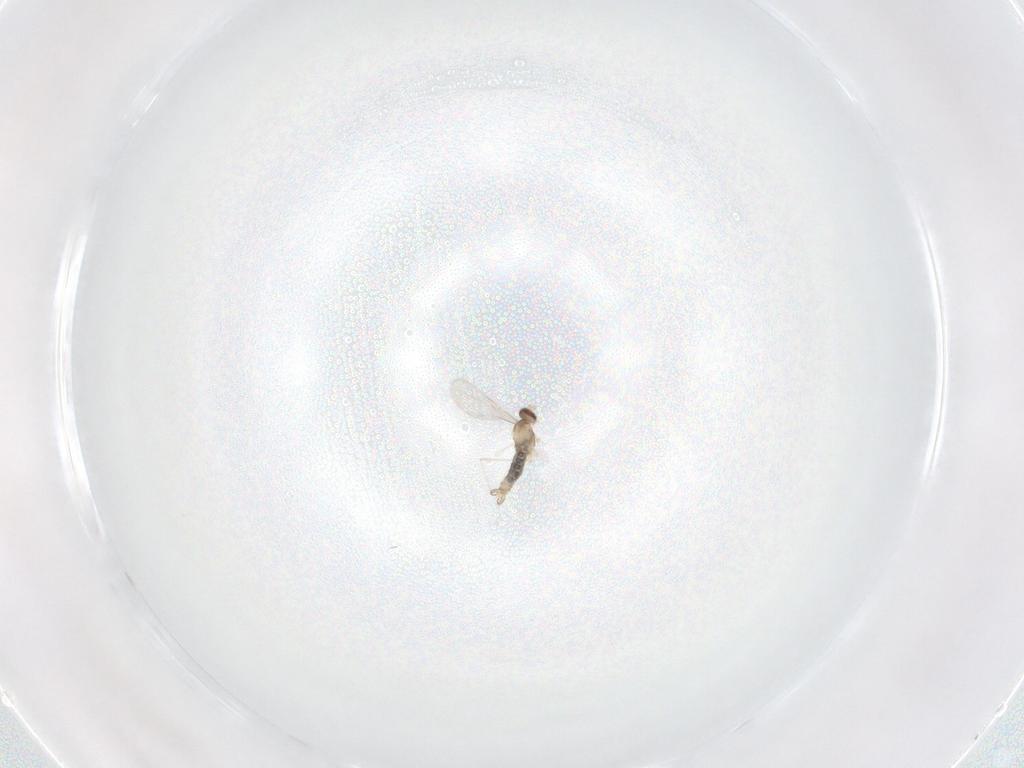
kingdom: Animalia
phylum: Arthropoda
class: Insecta
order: Diptera
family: Cecidomyiidae
